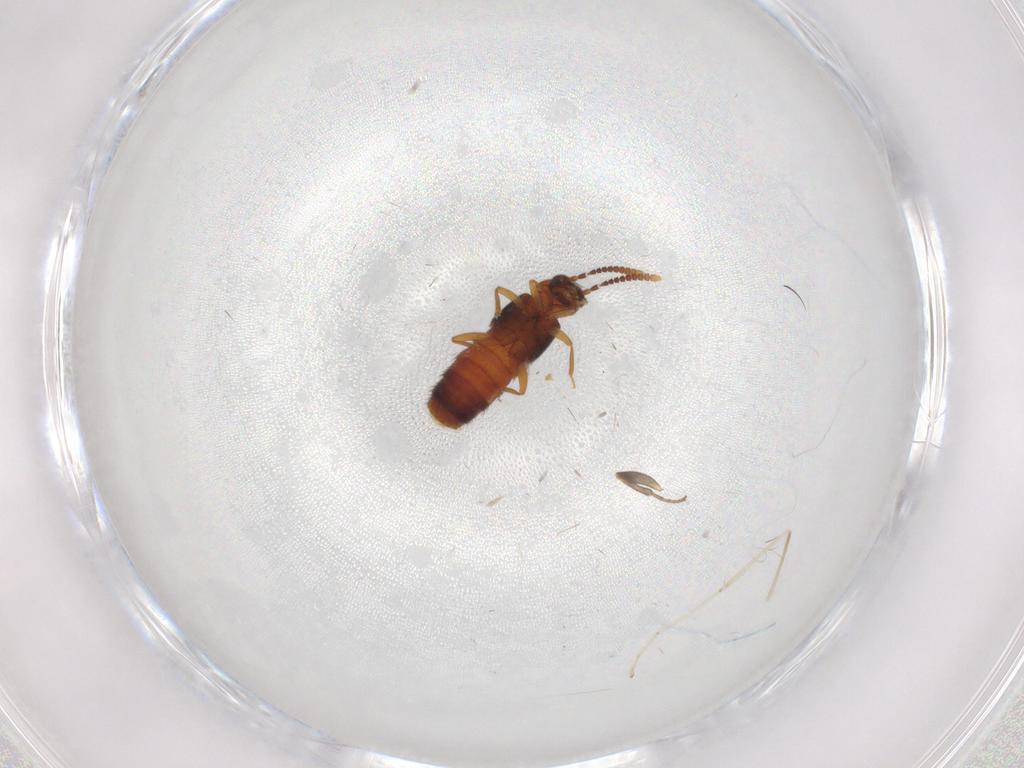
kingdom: Animalia
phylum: Arthropoda
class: Insecta
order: Coleoptera
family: Staphylinidae
